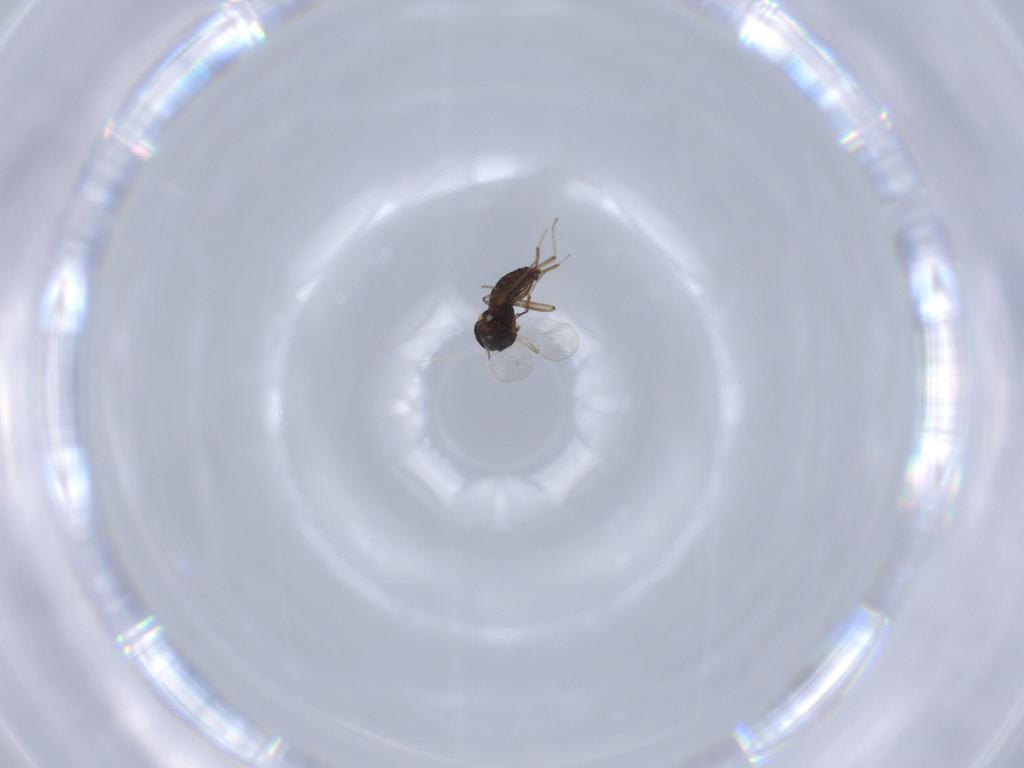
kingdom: Animalia
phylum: Arthropoda
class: Insecta
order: Diptera
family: Ceratopogonidae
